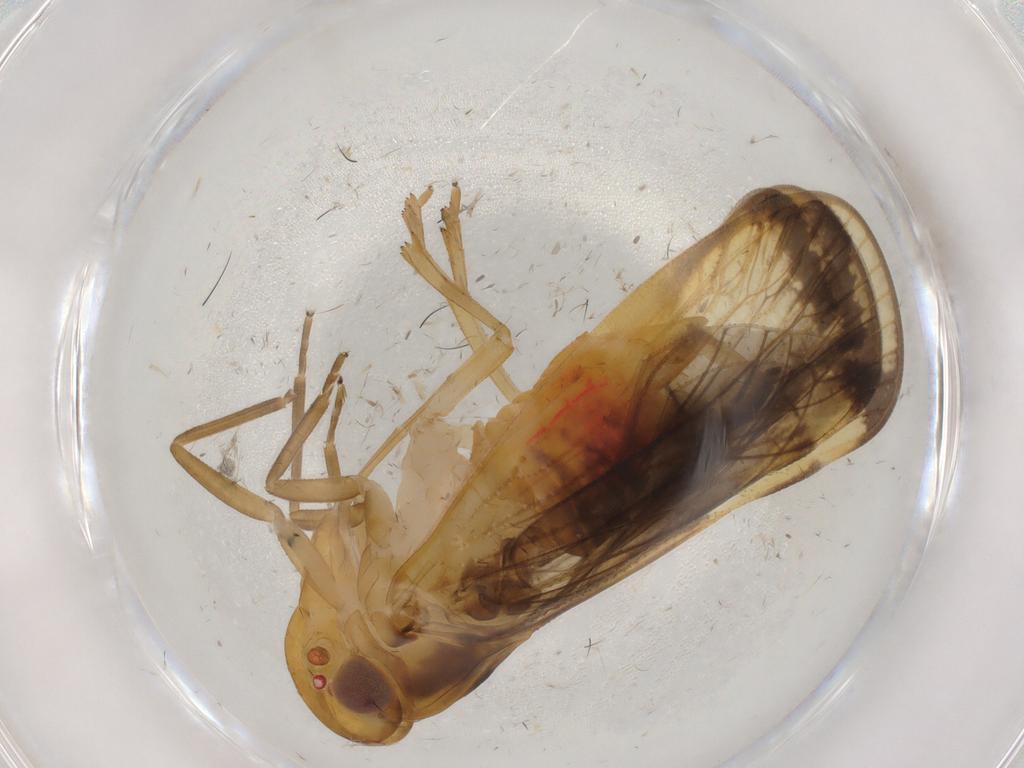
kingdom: Animalia
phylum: Arthropoda
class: Insecta
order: Hemiptera
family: Cixiidae
